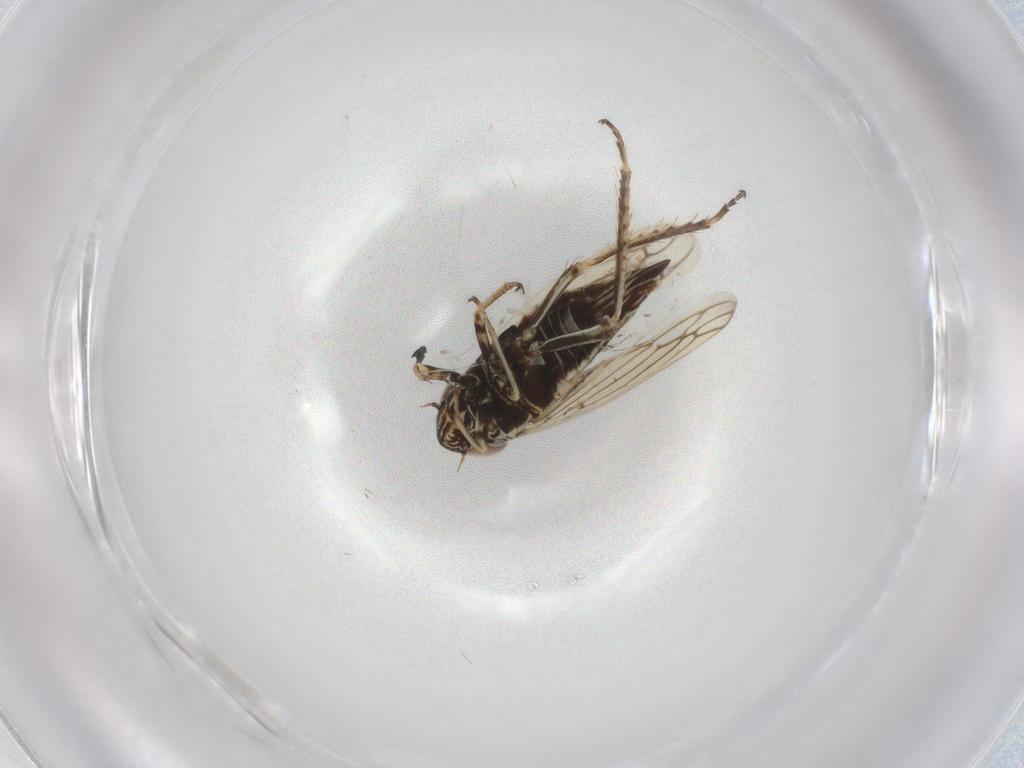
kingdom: Animalia
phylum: Arthropoda
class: Insecta
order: Hemiptera
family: Cicadellidae
